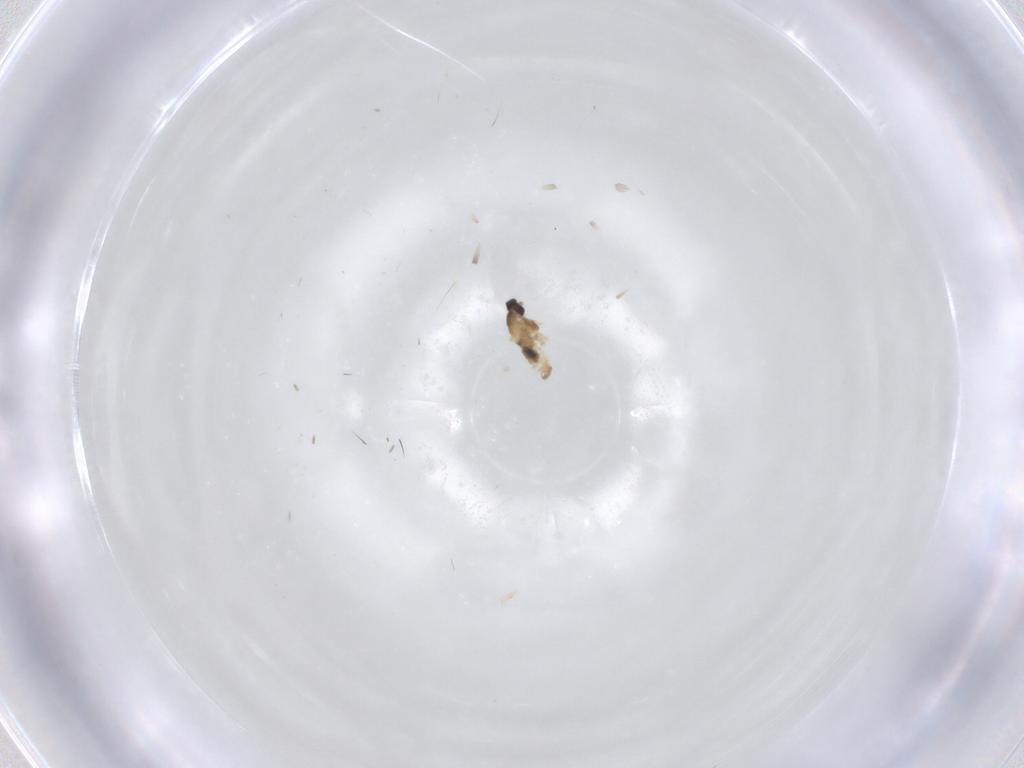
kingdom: Animalia
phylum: Arthropoda
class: Insecta
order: Diptera
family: Cecidomyiidae
